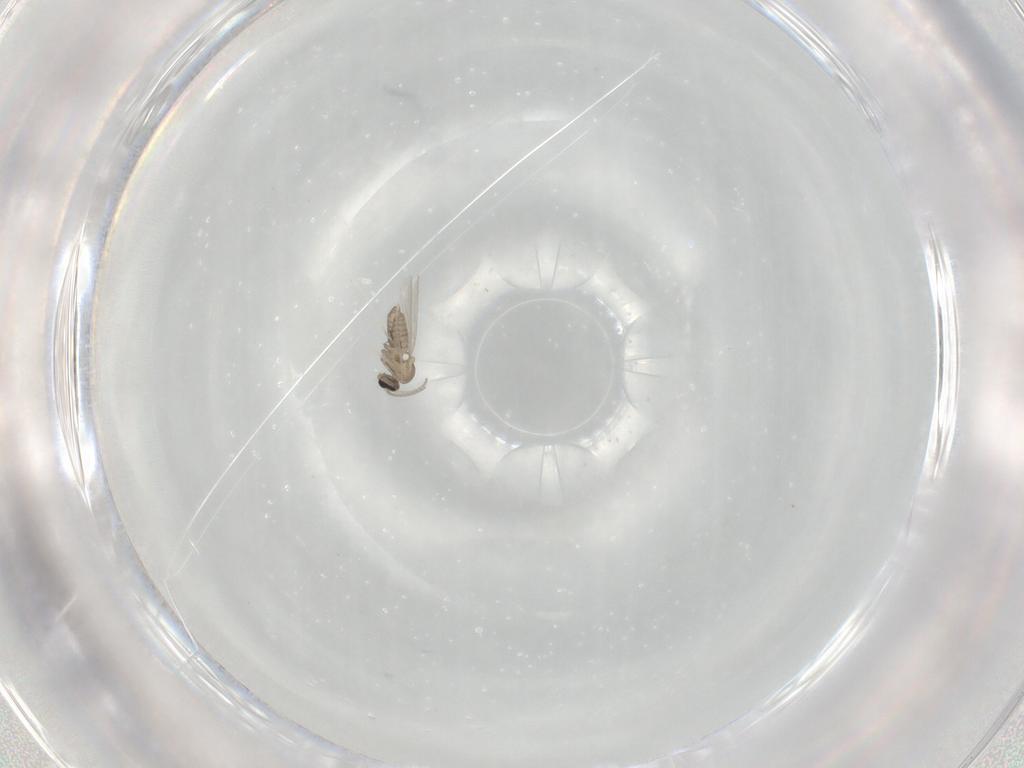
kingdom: Animalia
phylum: Arthropoda
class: Insecta
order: Diptera
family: Cecidomyiidae
